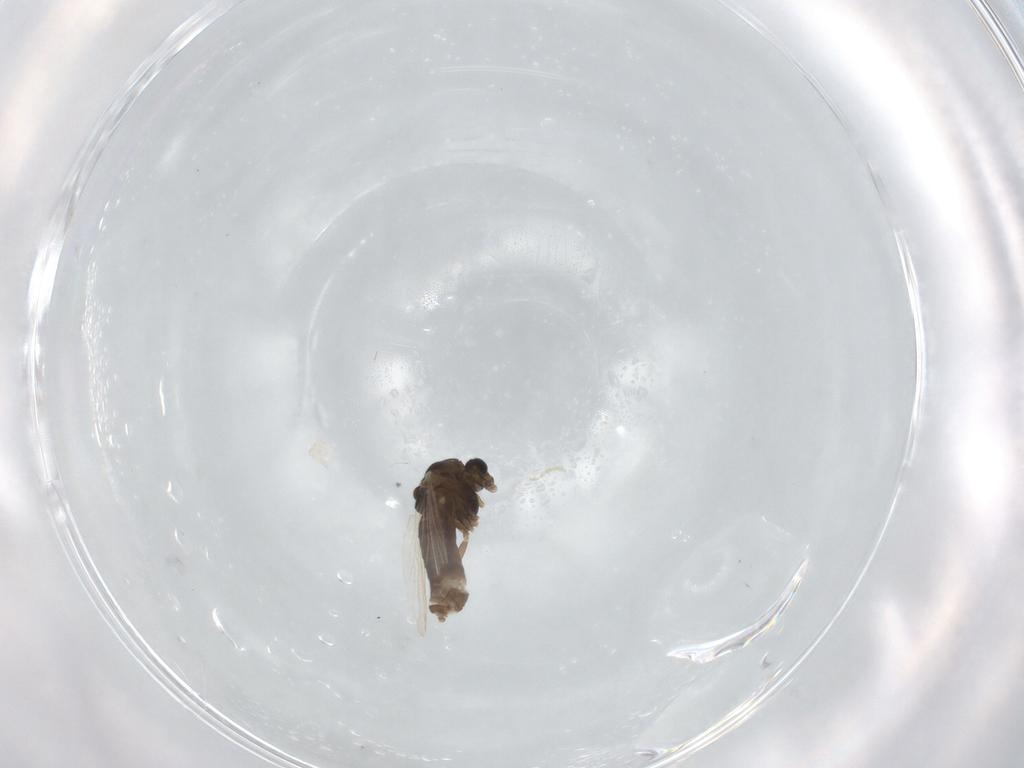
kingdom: Animalia
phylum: Arthropoda
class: Insecta
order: Diptera
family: Chironomidae
